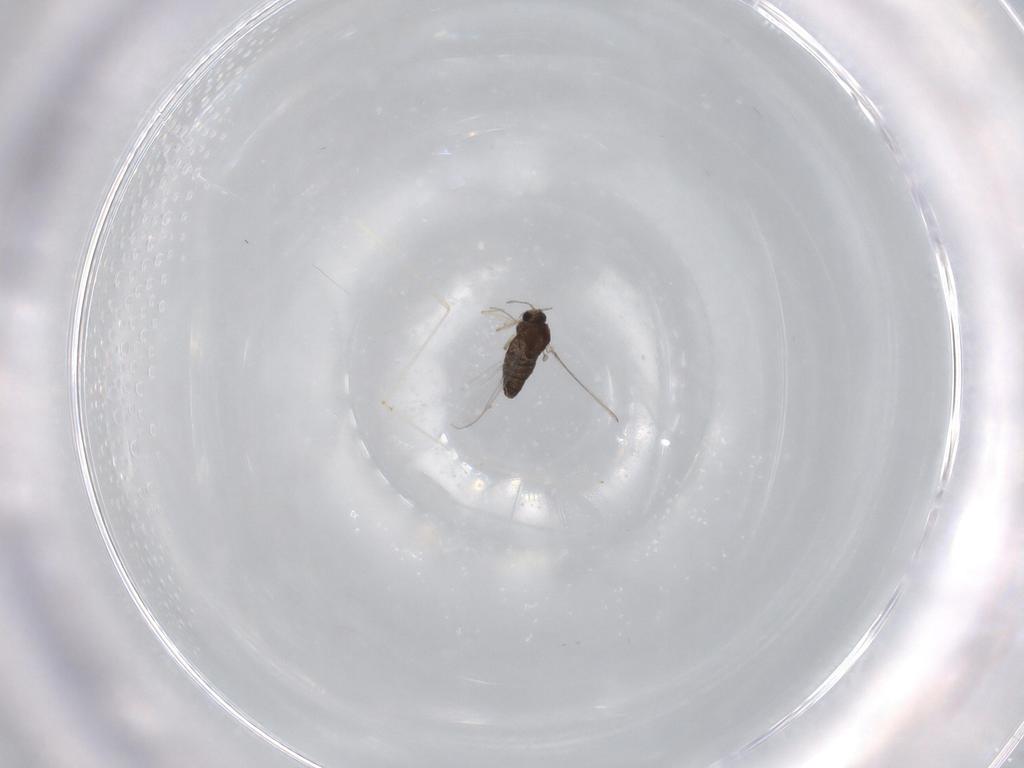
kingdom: Animalia
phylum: Arthropoda
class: Insecta
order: Diptera
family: Chironomidae
